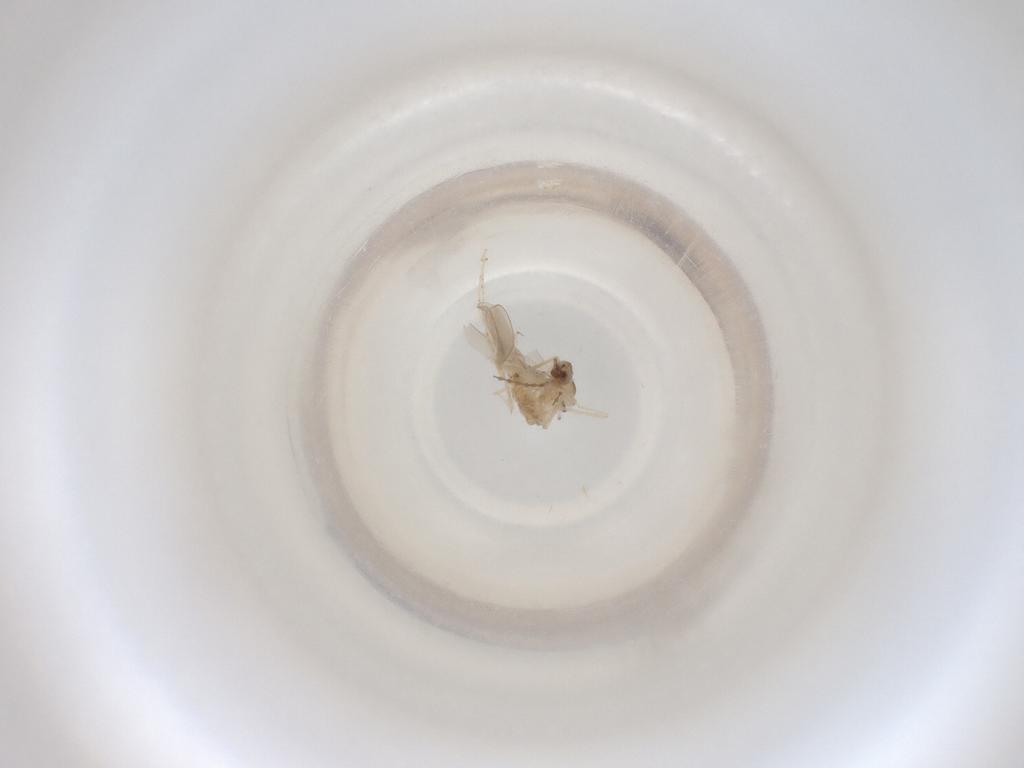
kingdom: Animalia
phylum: Arthropoda
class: Insecta
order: Diptera
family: Cecidomyiidae
